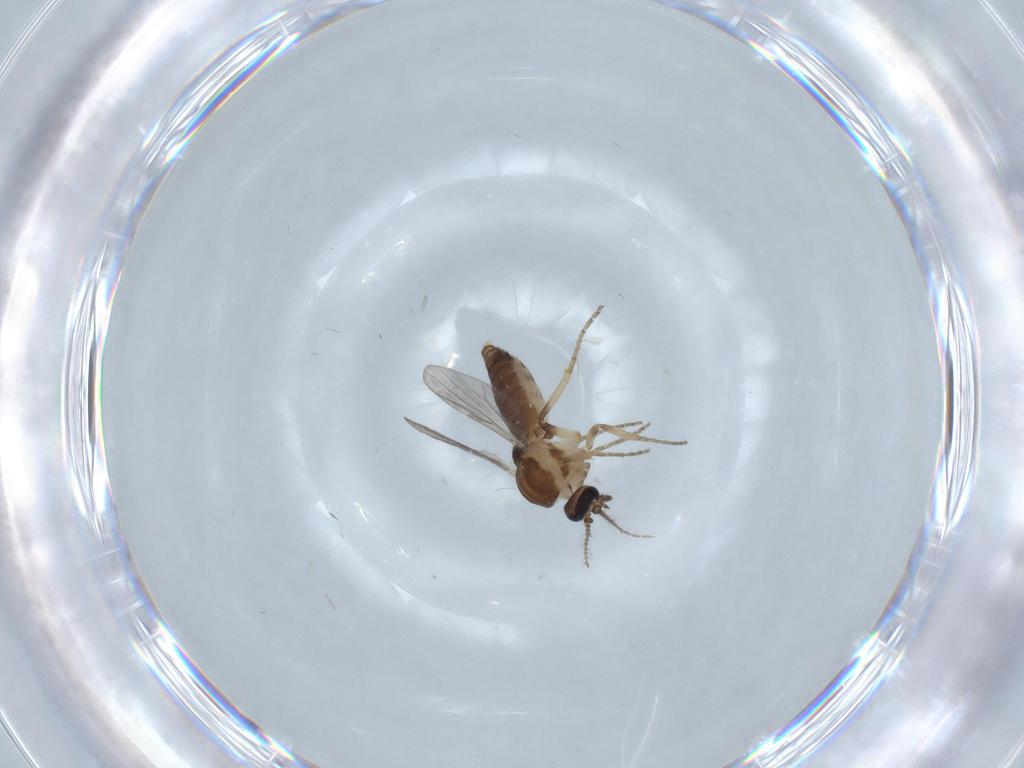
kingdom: Animalia
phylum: Arthropoda
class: Insecta
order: Diptera
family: Ceratopogonidae
